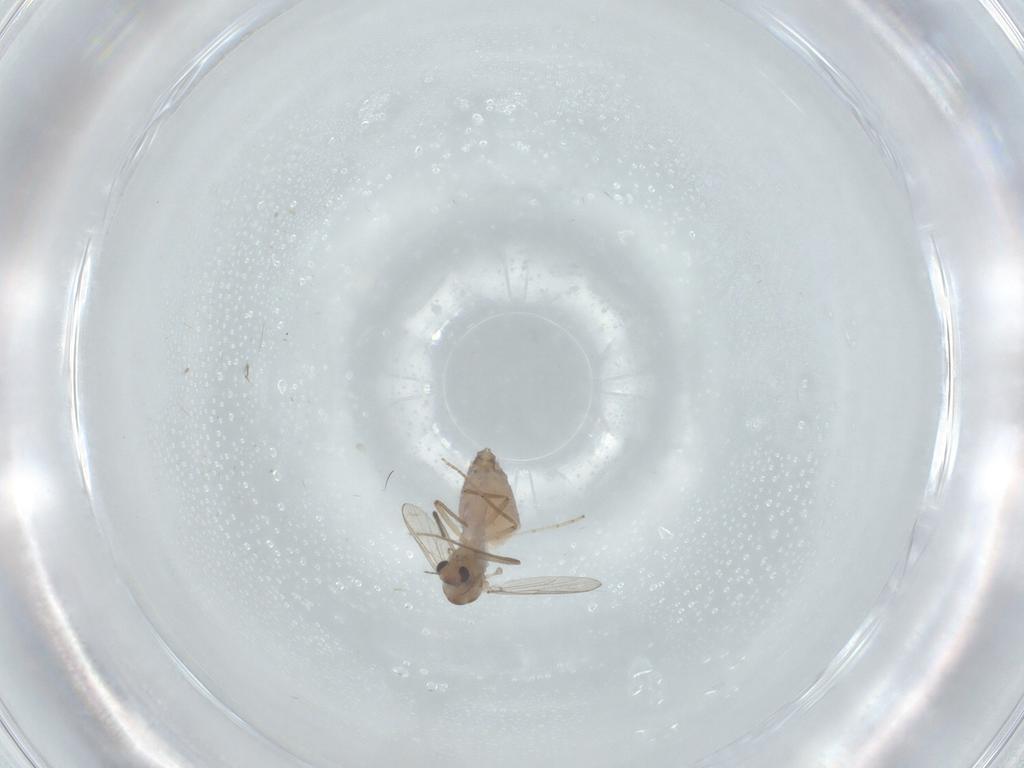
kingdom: Animalia
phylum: Arthropoda
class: Insecta
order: Diptera
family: Chironomidae
